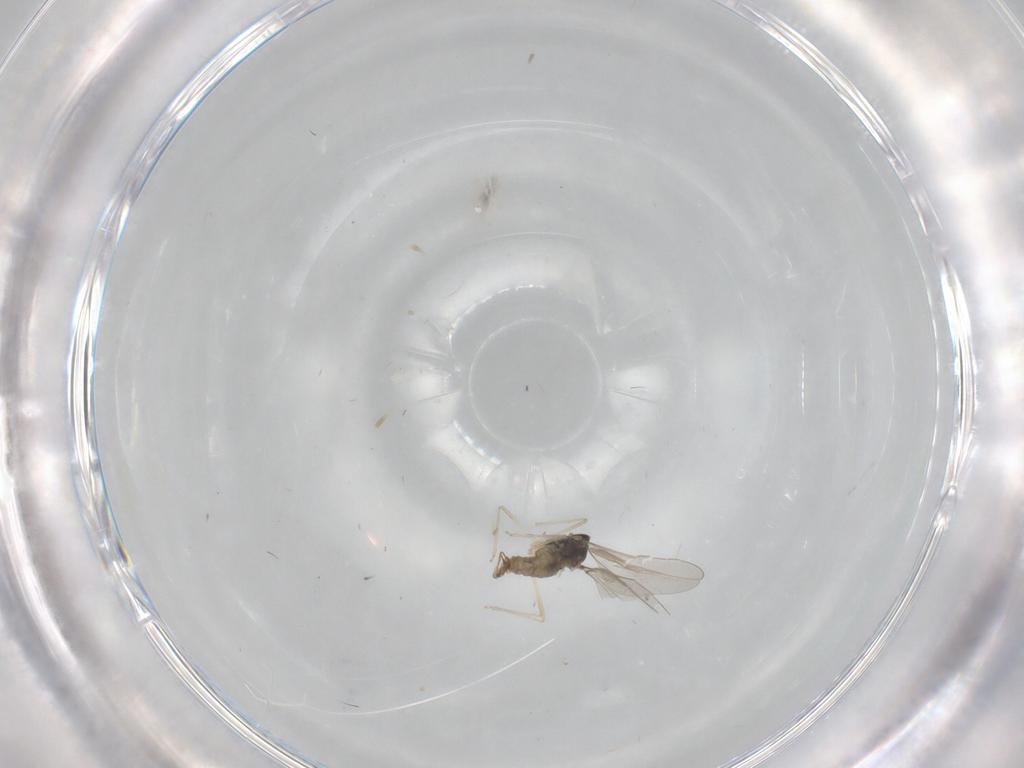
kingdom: Animalia
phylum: Arthropoda
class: Insecta
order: Diptera
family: Cecidomyiidae
